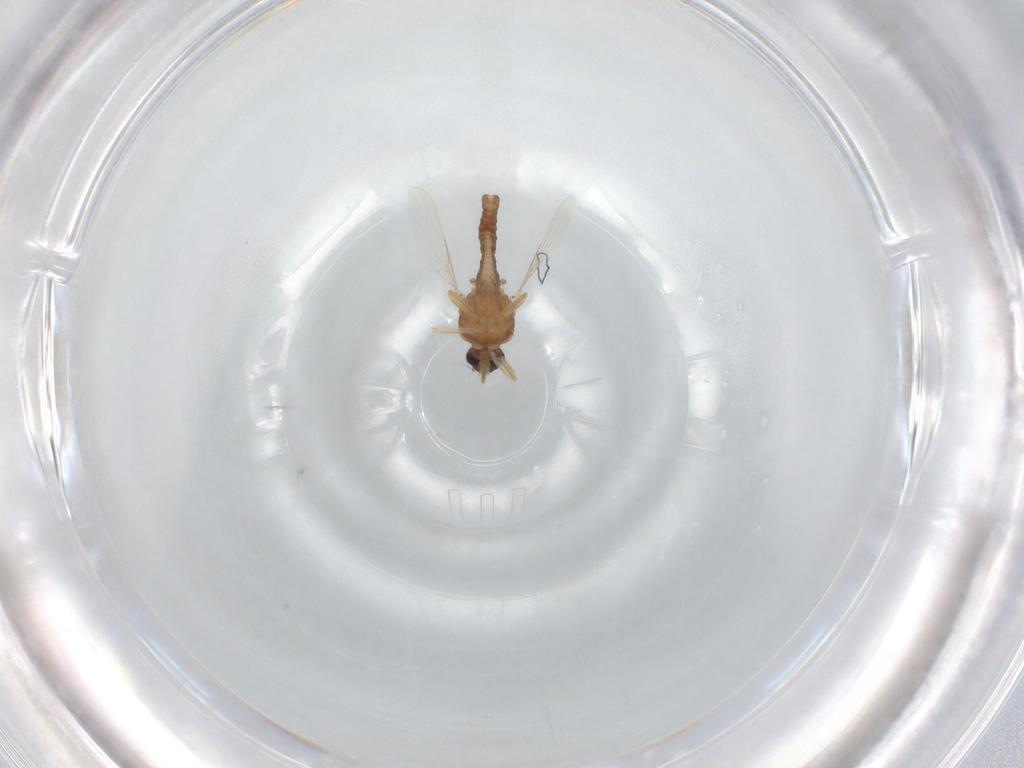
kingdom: Animalia
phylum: Arthropoda
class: Insecta
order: Diptera
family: Ceratopogonidae
